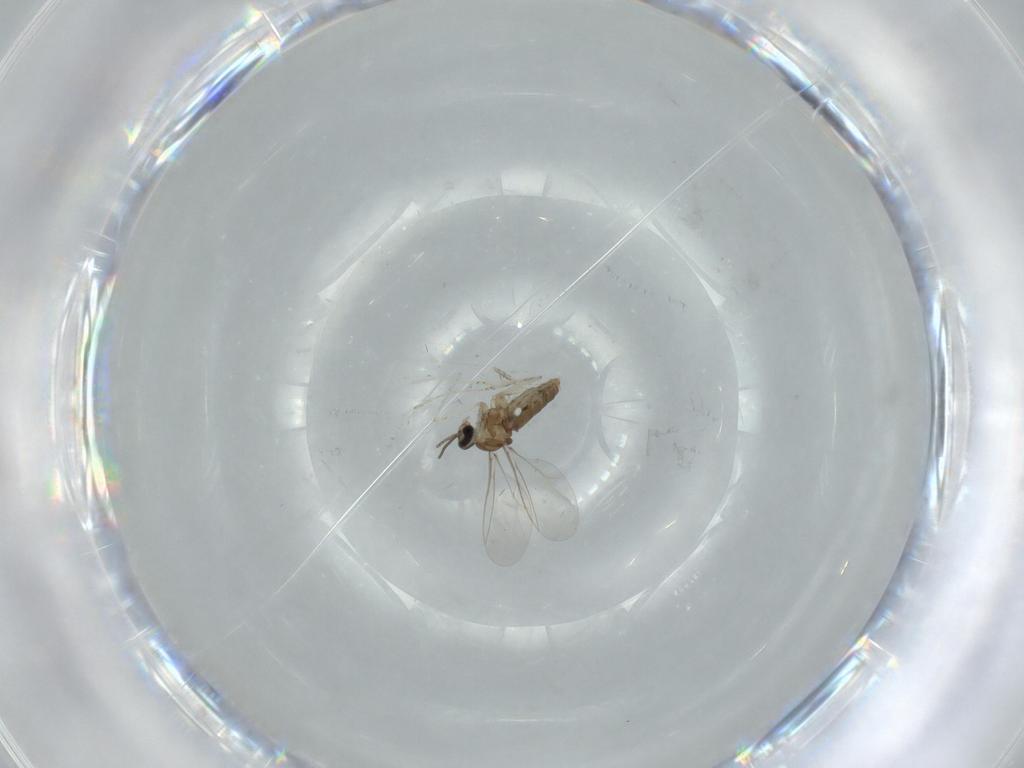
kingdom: Animalia
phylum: Arthropoda
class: Insecta
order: Diptera
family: Cecidomyiidae
